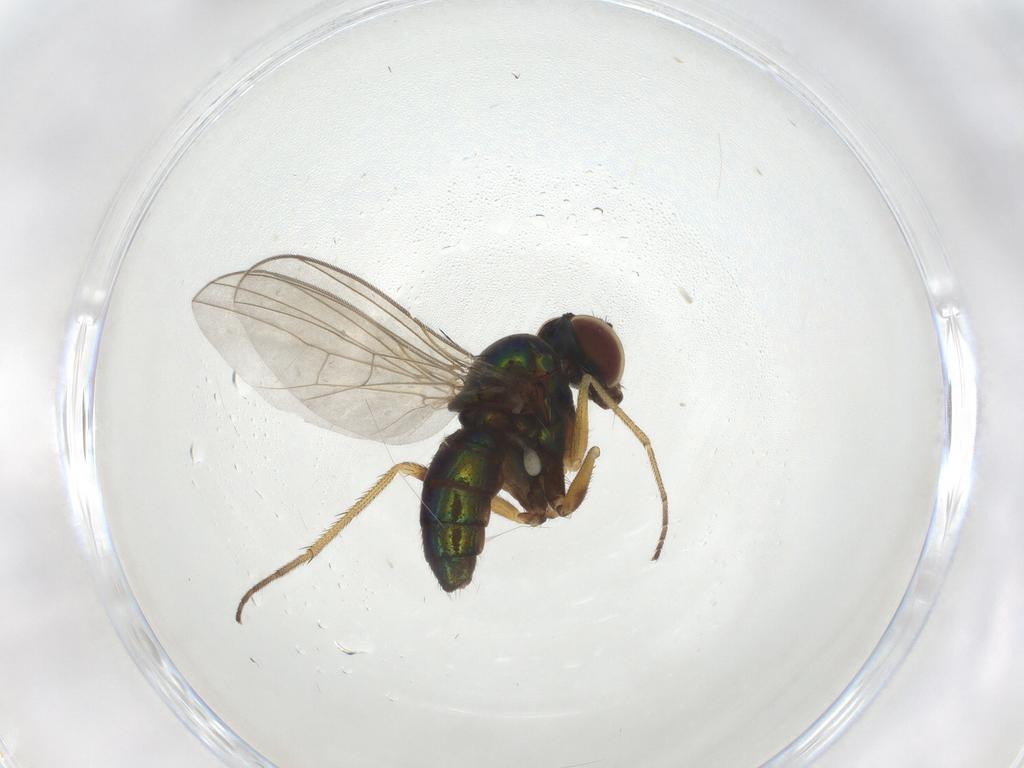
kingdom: Animalia
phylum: Arthropoda
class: Insecta
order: Diptera
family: Dolichopodidae
